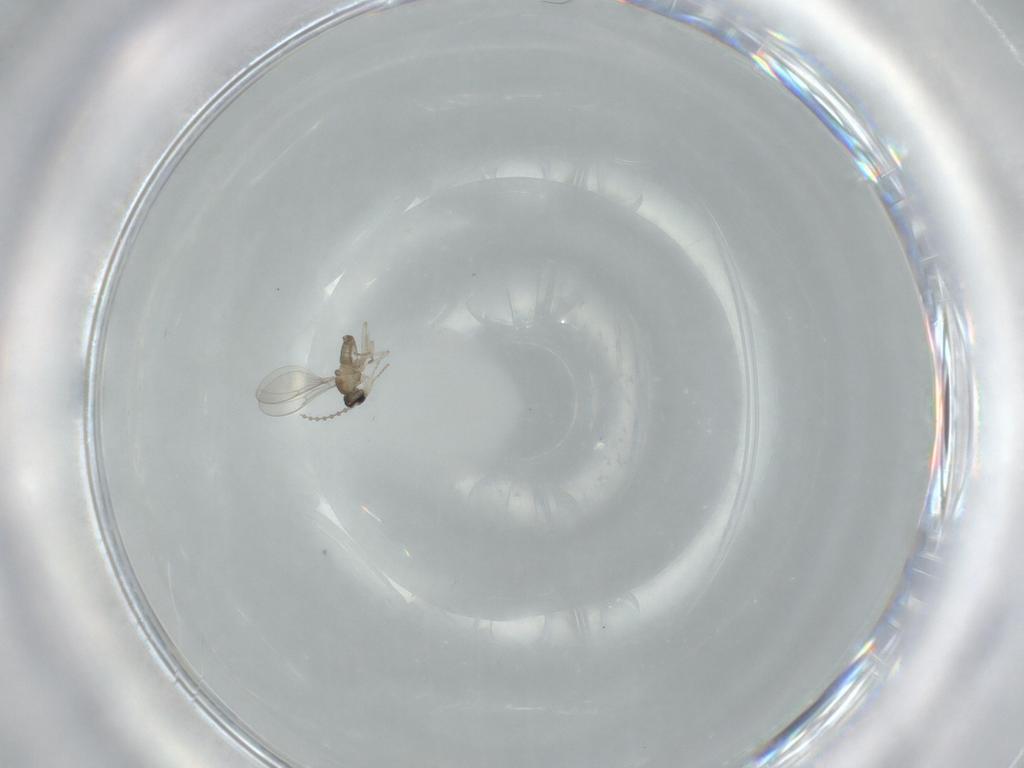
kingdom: Animalia
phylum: Arthropoda
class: Insecta
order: Diptera
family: Cecidomyiidae
